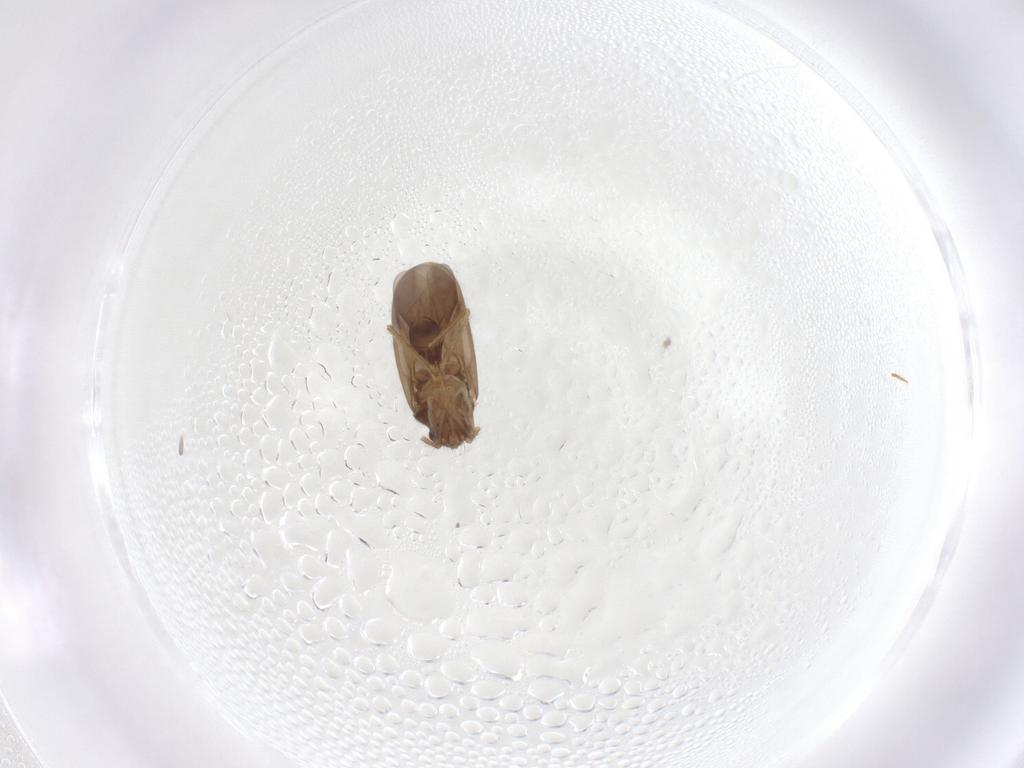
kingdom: Animalia
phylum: Arthropoda
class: Insecta
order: Hemiptera
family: Ceratocombidae
